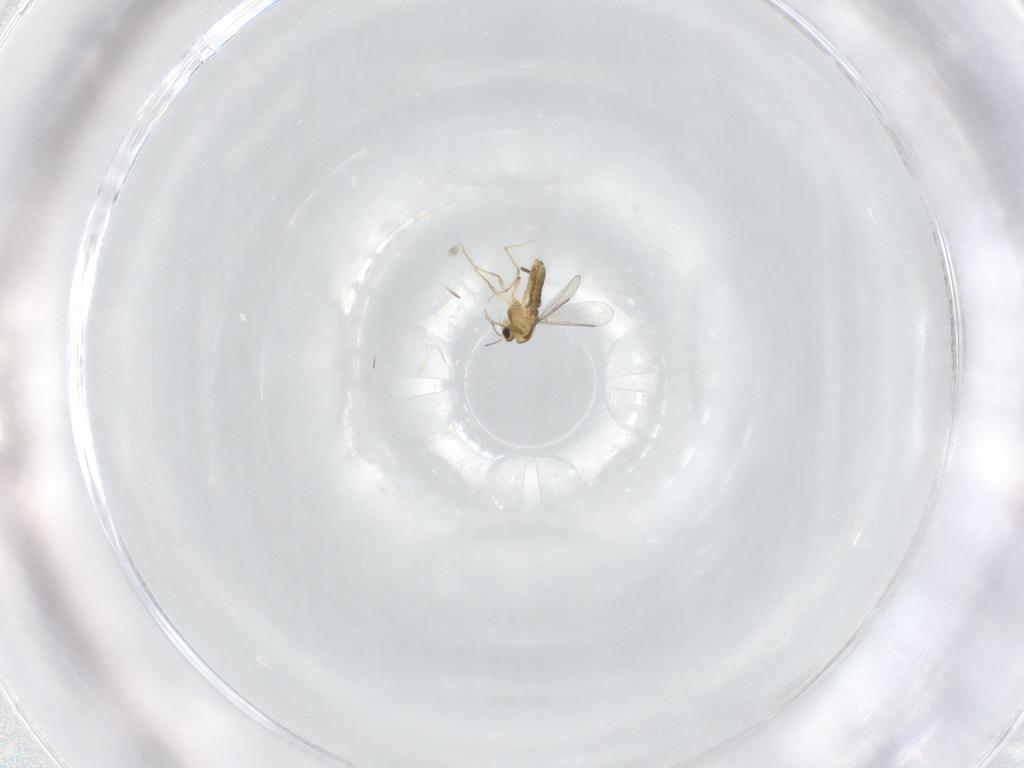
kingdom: Animalia
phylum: Arthropoda
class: Insecta
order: Diptera
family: Chironomidae
